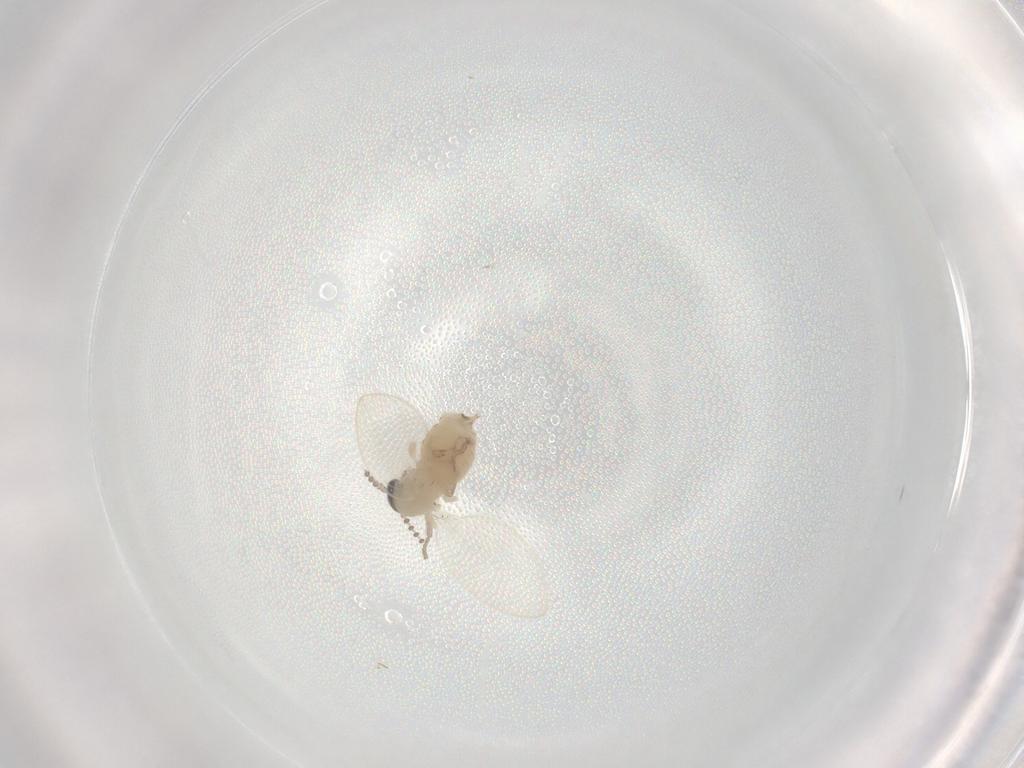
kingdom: Animalia
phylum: Arthropoda
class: Insecta
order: Diptera
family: Psychodidae
